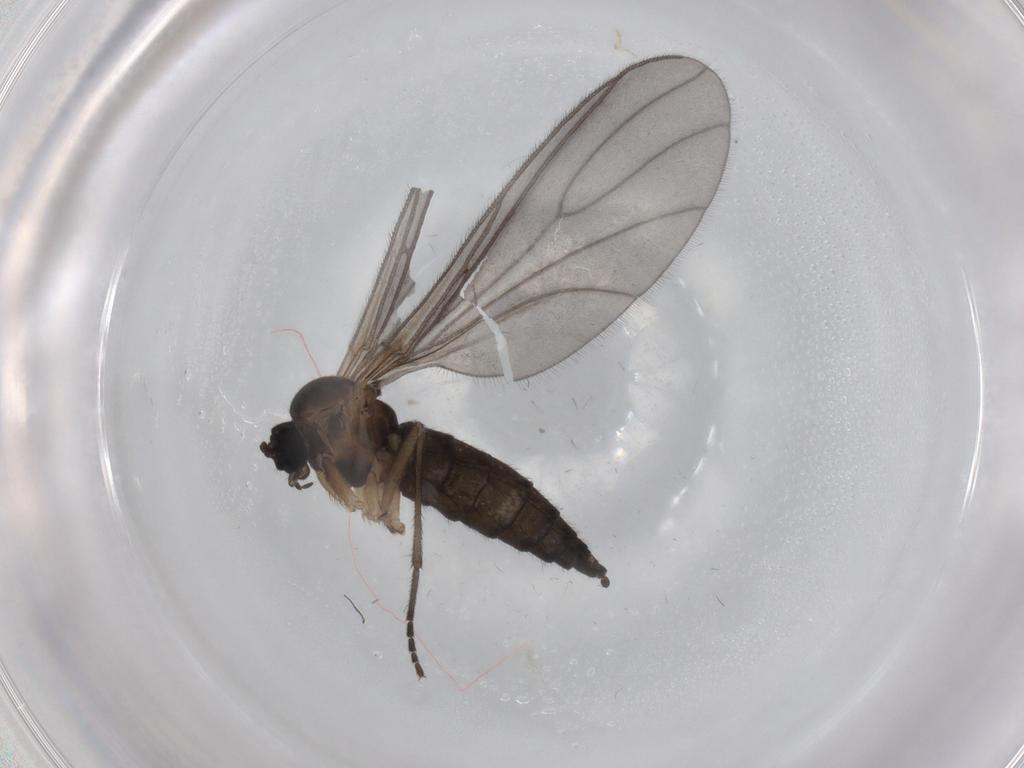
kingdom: Animalia
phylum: Arthropoda
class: Insecta
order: Diptera
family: Sciaridae
